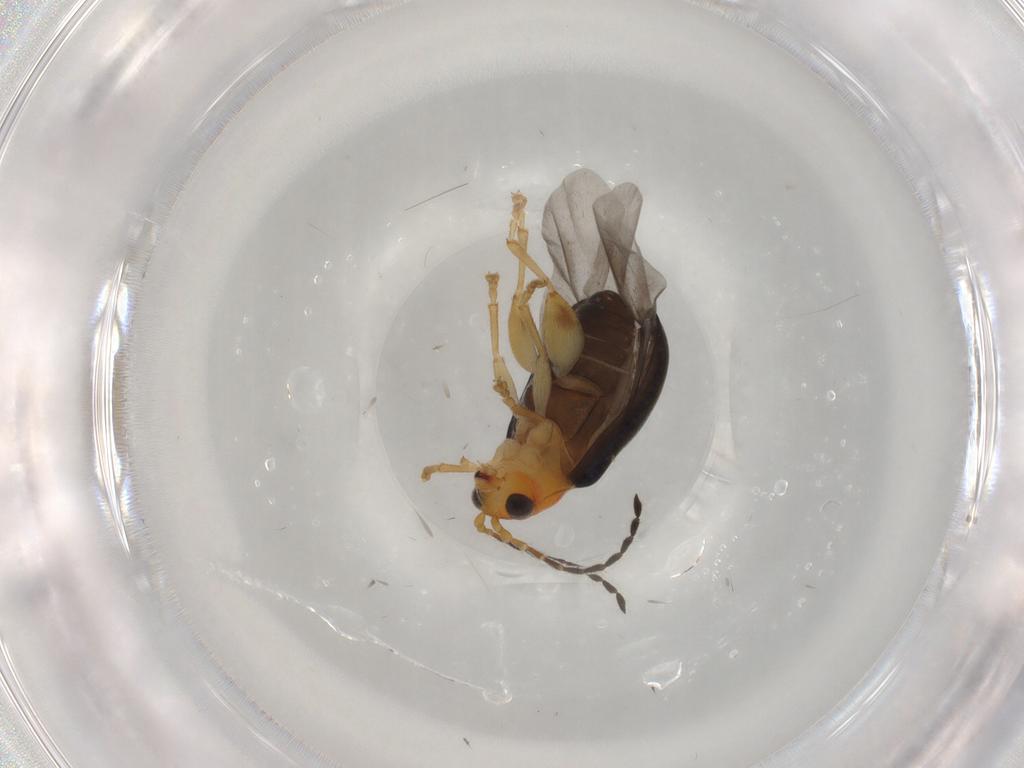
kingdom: Animalia
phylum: Arthropoda
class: Insecta
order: Coleoptera
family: Chrysomelidae
